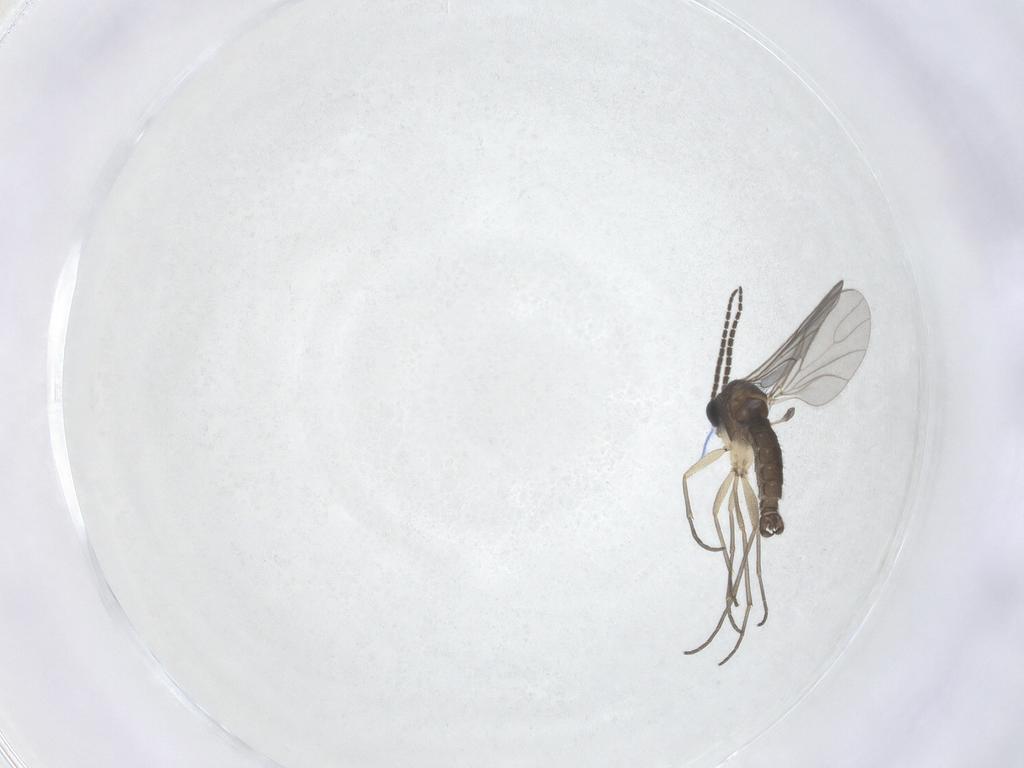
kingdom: Animalia
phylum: Arthropoda
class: Insecta
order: Diptera
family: Sciaridae
